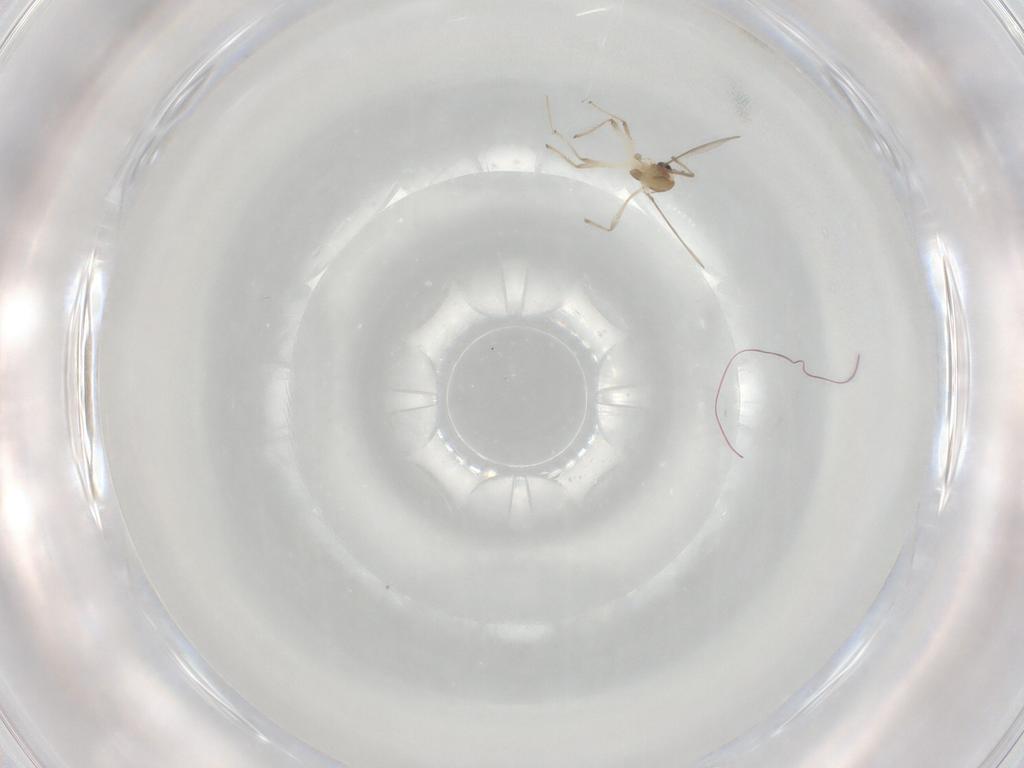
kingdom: Animalia
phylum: Arthropoda
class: Insecta
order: Diptera
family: Chironomidae
